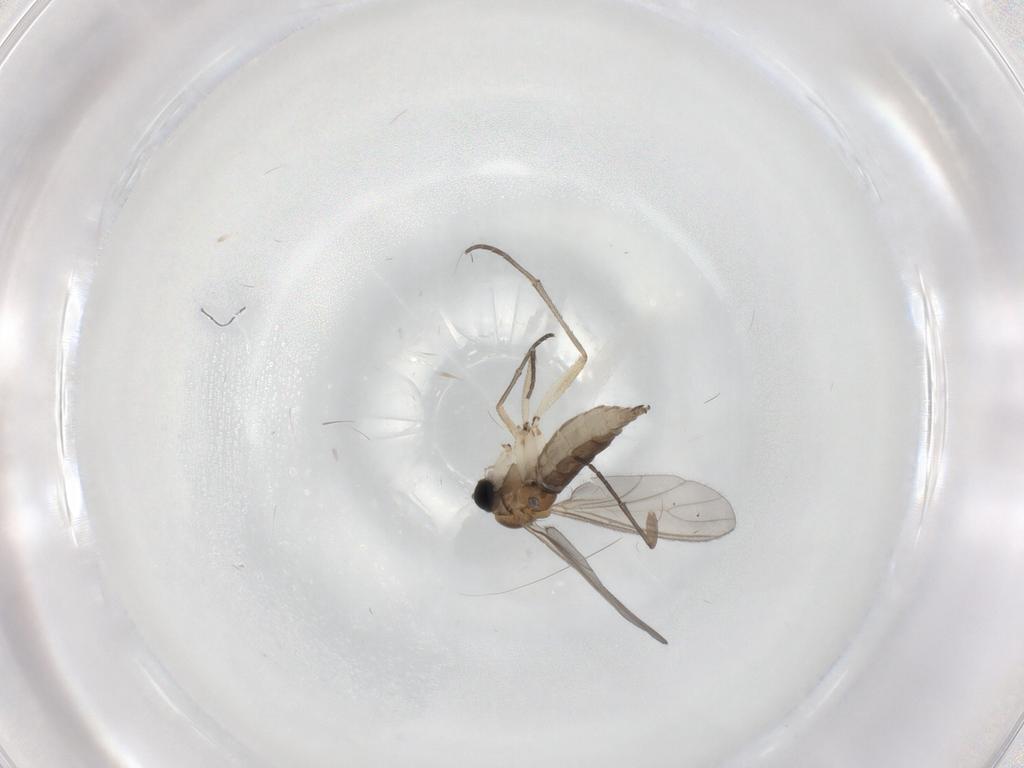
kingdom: Animalia
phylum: Arthropoda
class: Insecta
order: Diptera
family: Sciaridae
